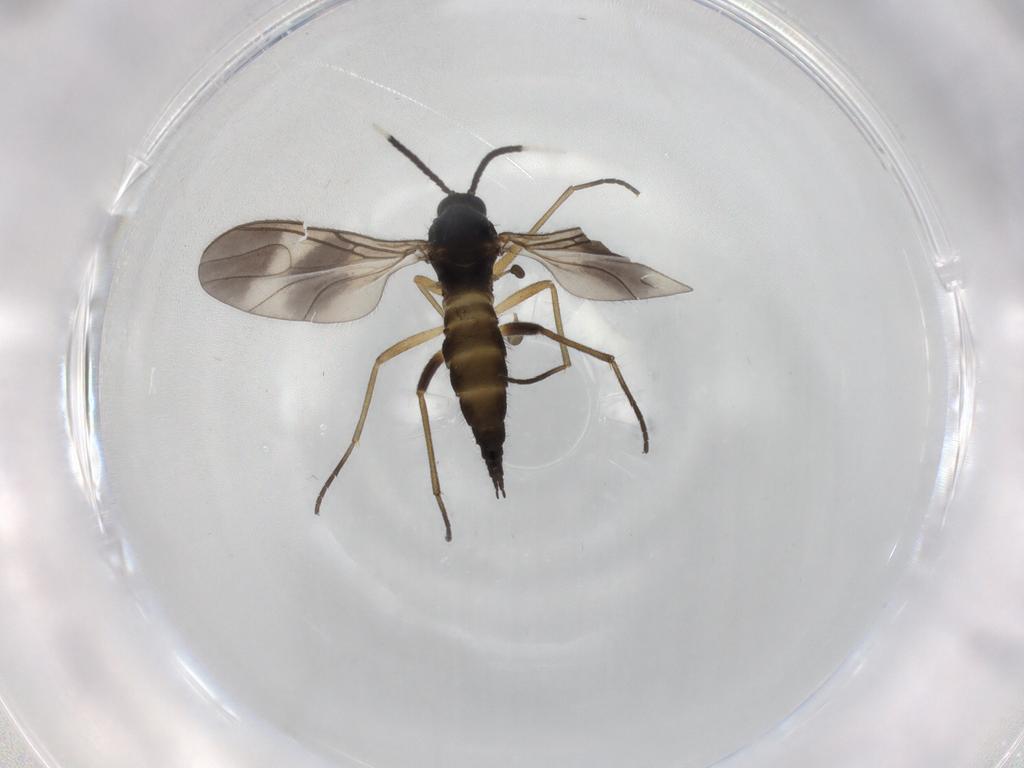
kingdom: Animalia
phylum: Arthropoda
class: Insecta
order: Diptera
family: Sciaridae
